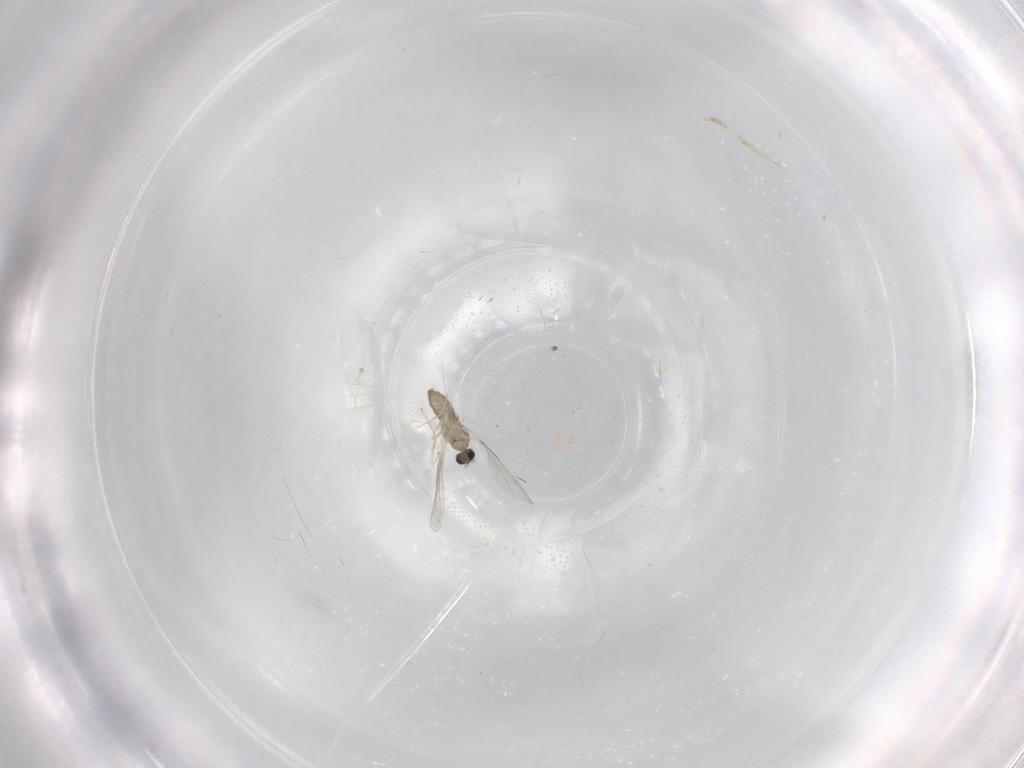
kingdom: Animalia
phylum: Arthropoda
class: Insecta
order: Diptera
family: Cecidomyiidae
